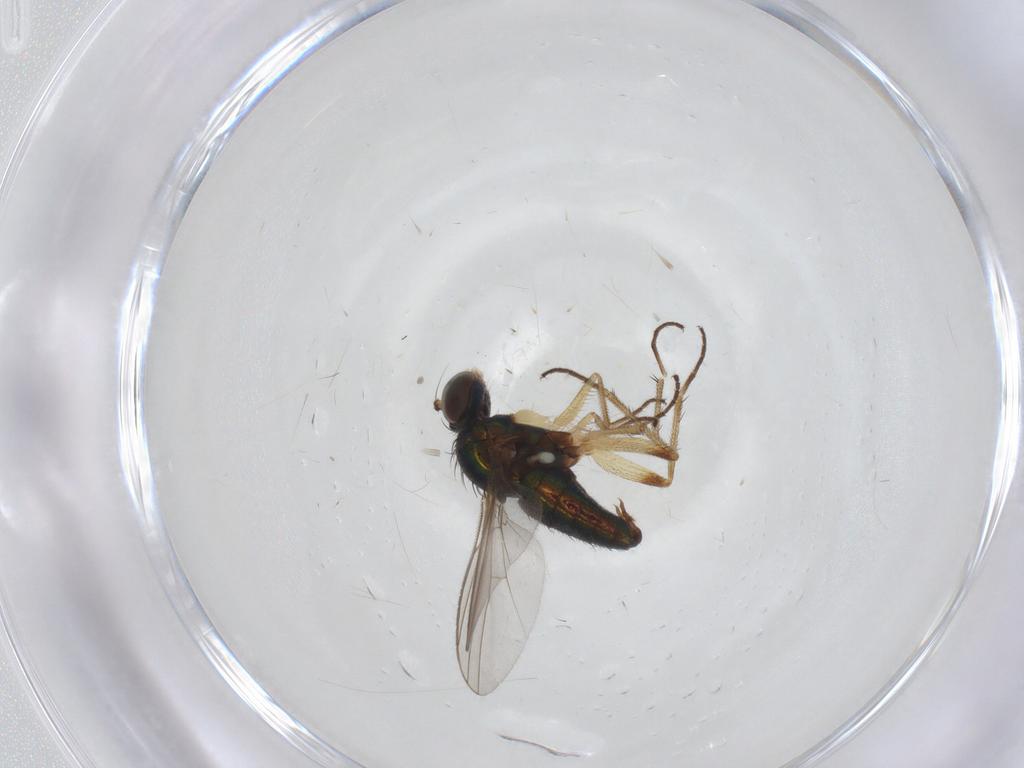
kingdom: Animalia
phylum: Arthropoda
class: Insecta
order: Diptera
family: Dolichopodidae
